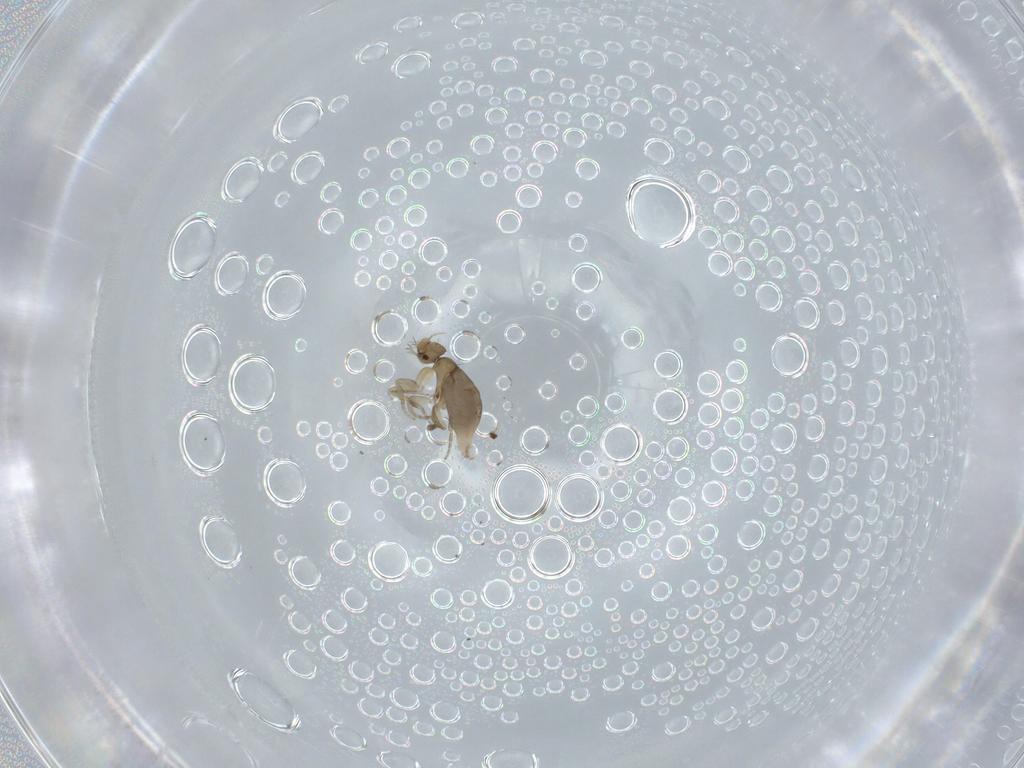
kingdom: Animalia
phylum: Arthropoda
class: Insecta
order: Diptera
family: Phoridae
